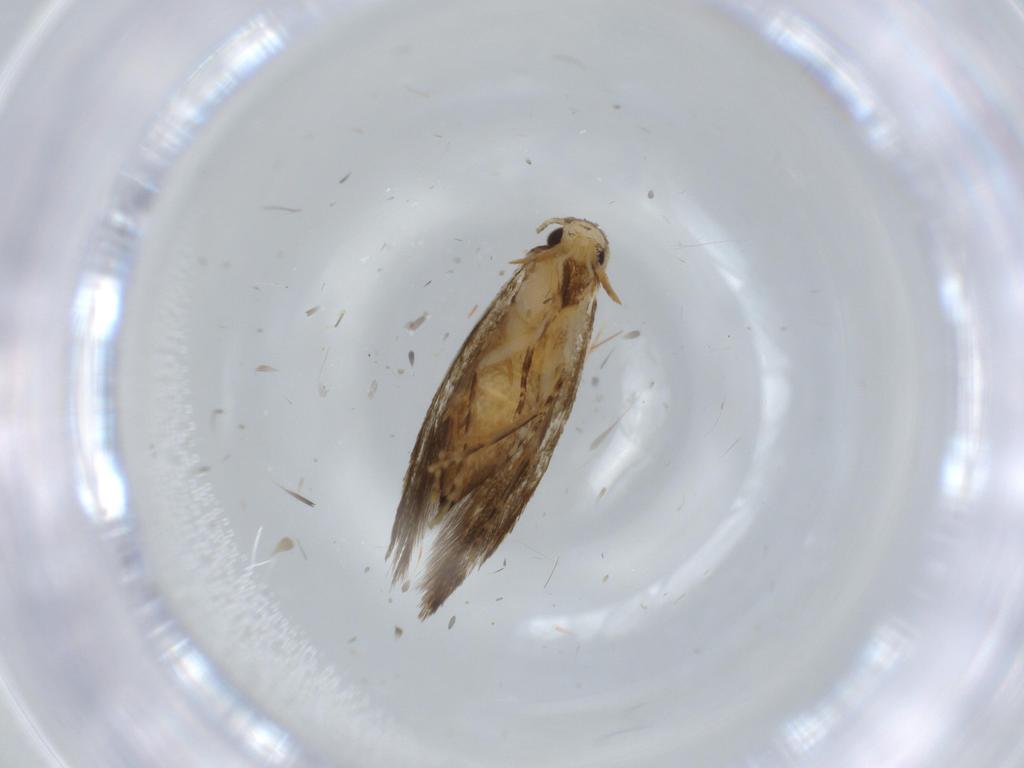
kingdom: Animalia
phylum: Arthropoda
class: Insecta
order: Lepidoptera
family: Tineidae
